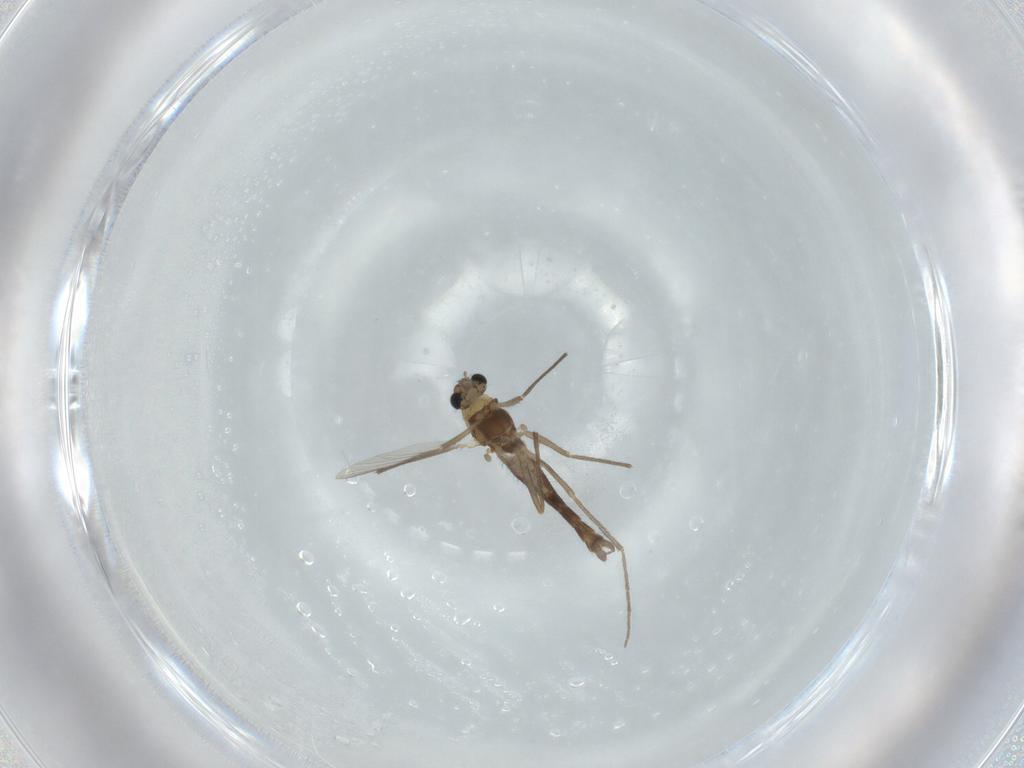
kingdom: Animalia
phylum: Arthropoda
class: Insecta
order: Diptera
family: Chironomidae
